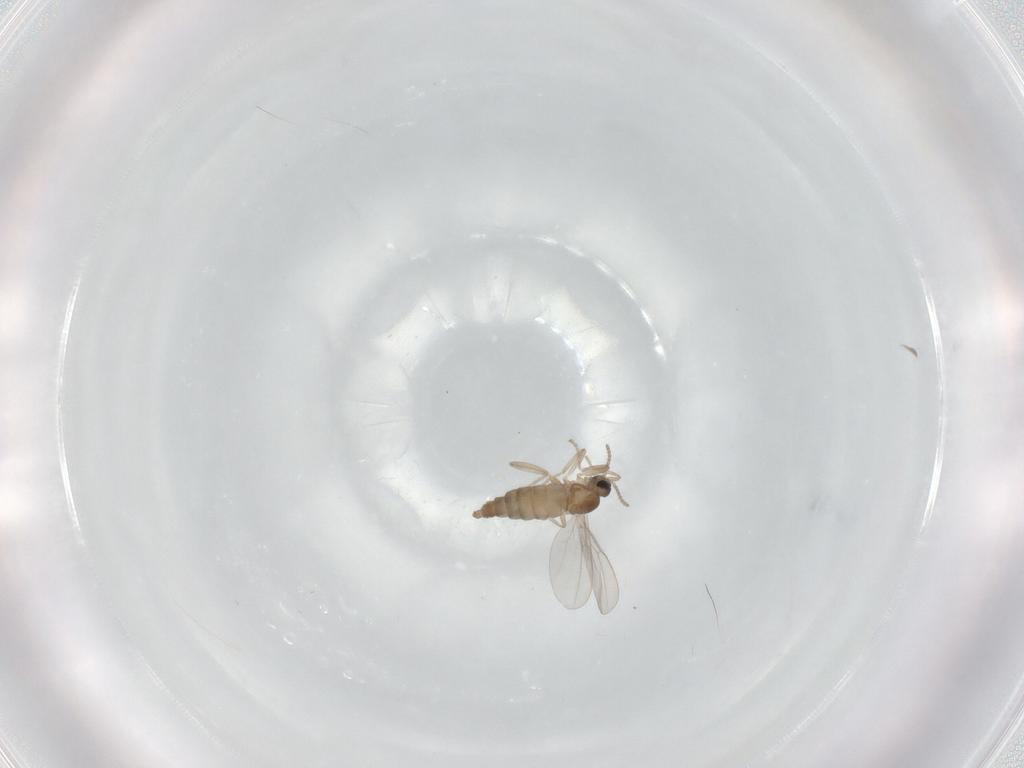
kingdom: Animalia
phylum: Arthropoda
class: Insecta
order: Diptera
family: Cecidomyiidae
